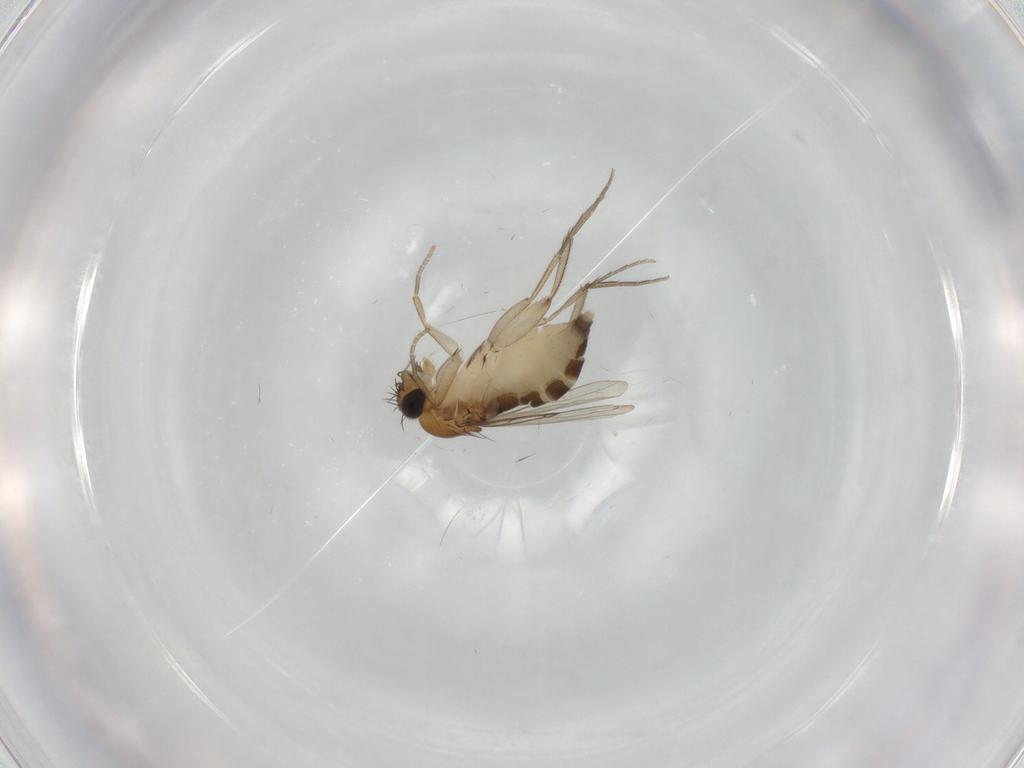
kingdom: Animalia
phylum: Arthropoda
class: Insecta
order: Diptera
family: Phoridae
